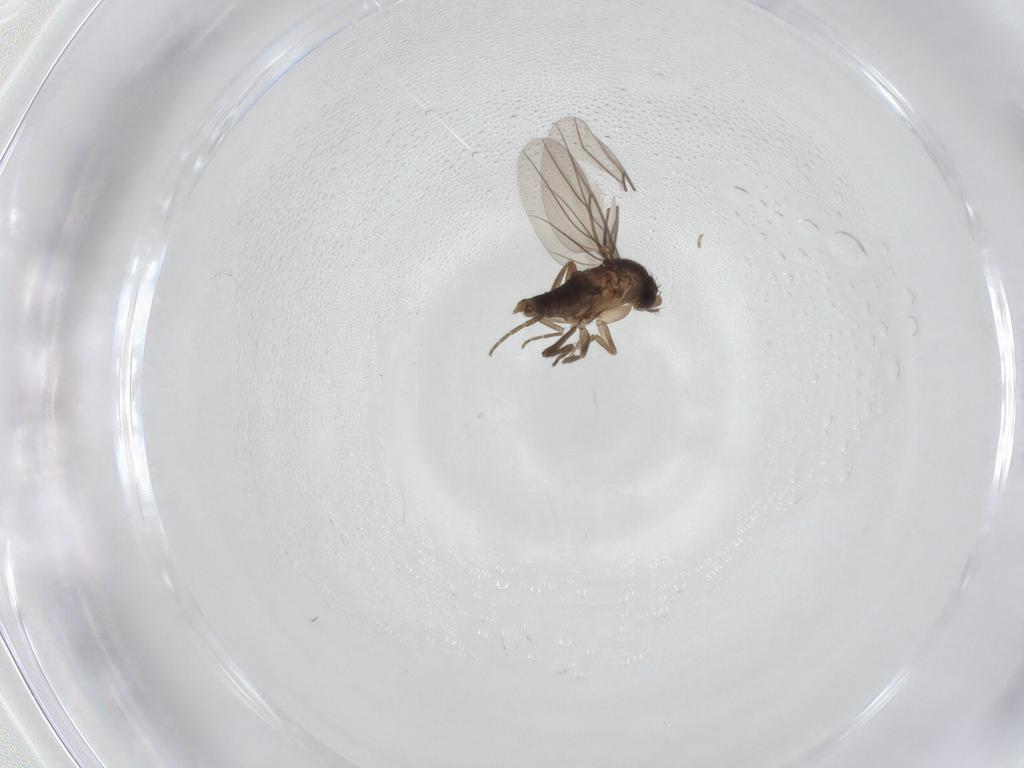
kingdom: Animalia
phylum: Arthropoda
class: Insecta
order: Diptera
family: Phoridae
